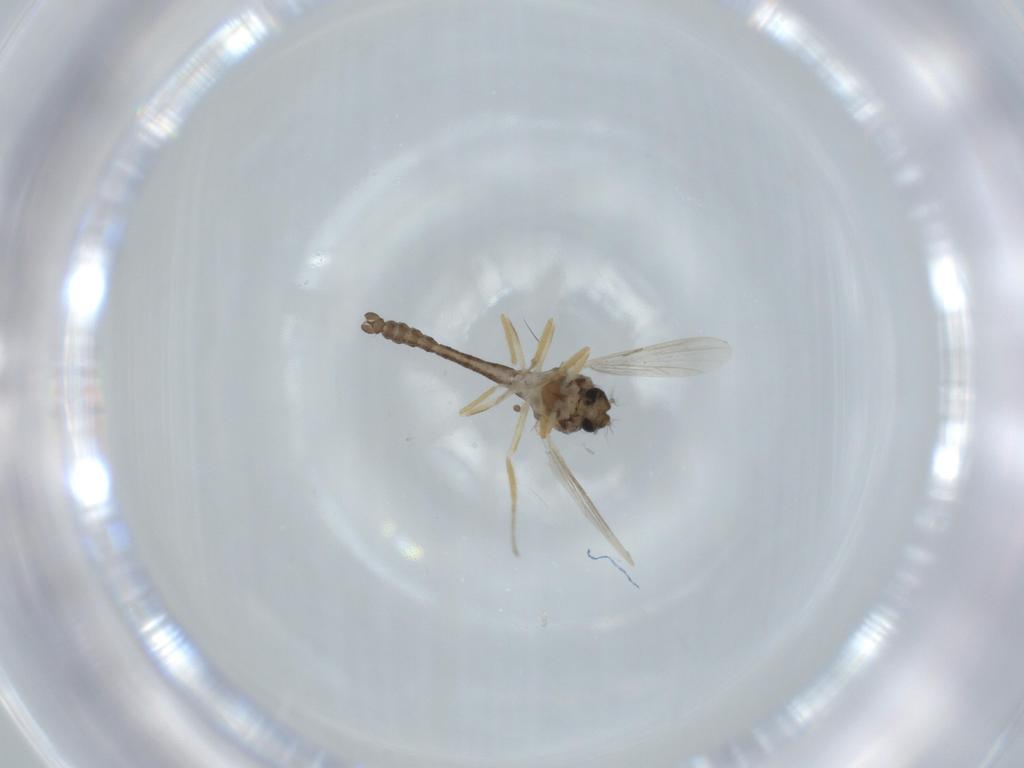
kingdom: Animalia
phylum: Arthropoda
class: Insecta
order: Diptera
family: Ceratopogonidae
